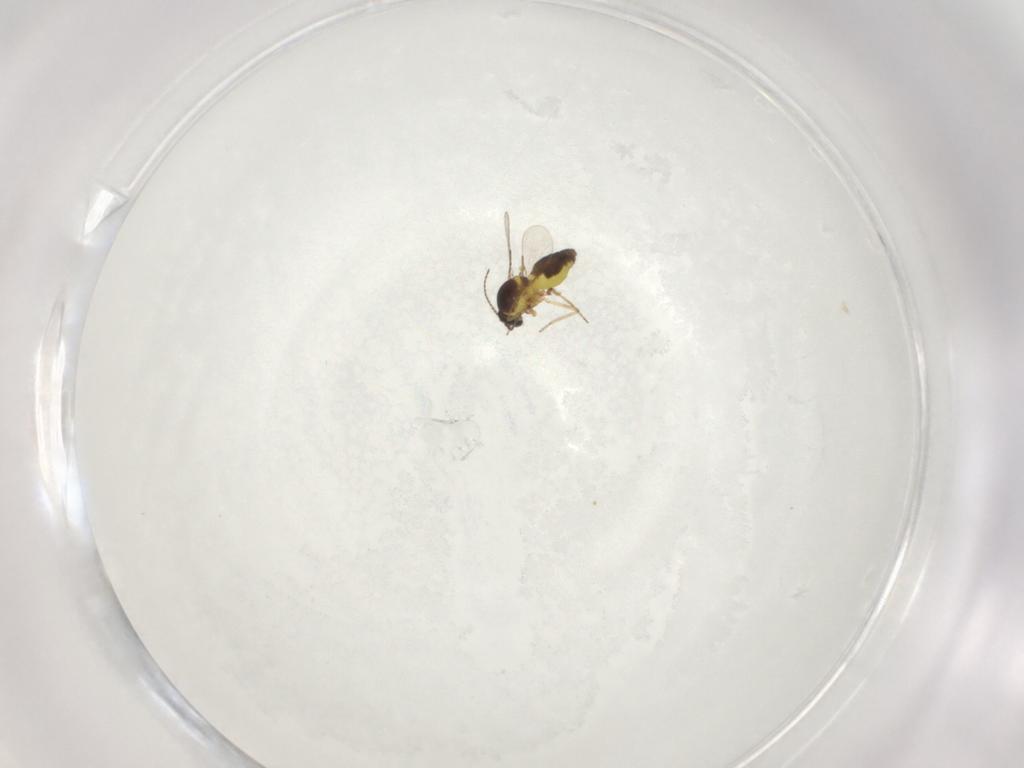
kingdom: Animalia
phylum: Arthropoda
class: Insecta
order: Diptera
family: Ceratopogonidae
